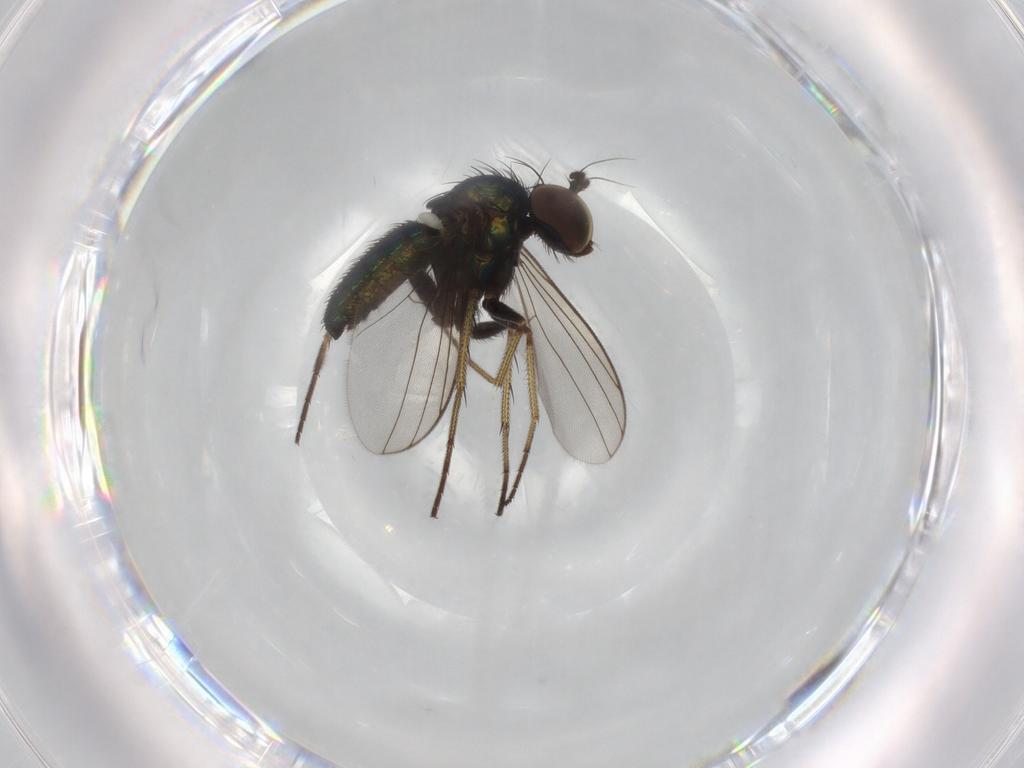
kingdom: Animalia
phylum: Arthropoda
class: Insecta
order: Diptera
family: Dolichopodidae
